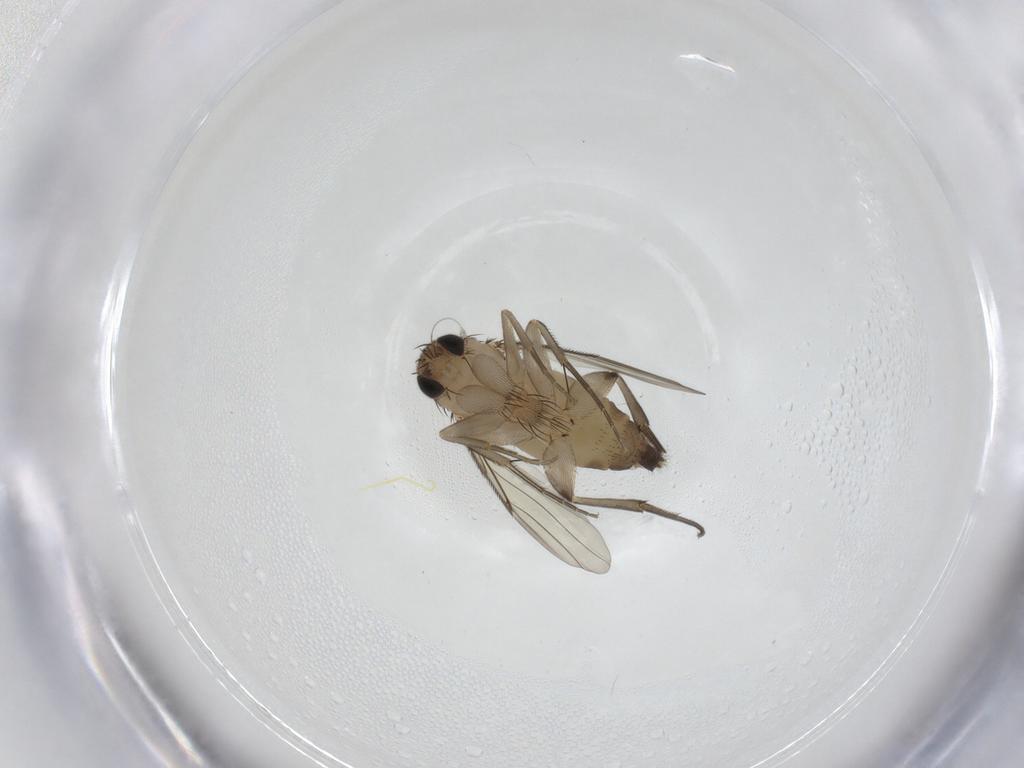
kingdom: Animalia
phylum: Arthropoda
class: Insecta
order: Diptera
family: Phoridae
